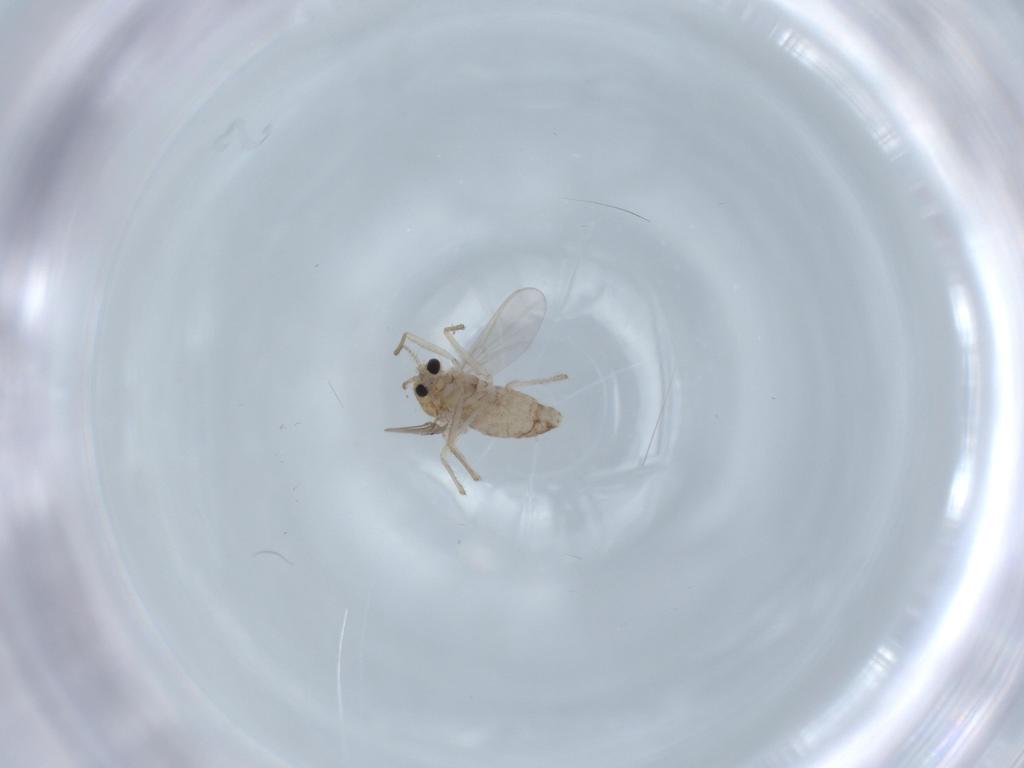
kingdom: Animalia
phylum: Arthropoda
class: Insecta
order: Diptera
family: Chironomidae
